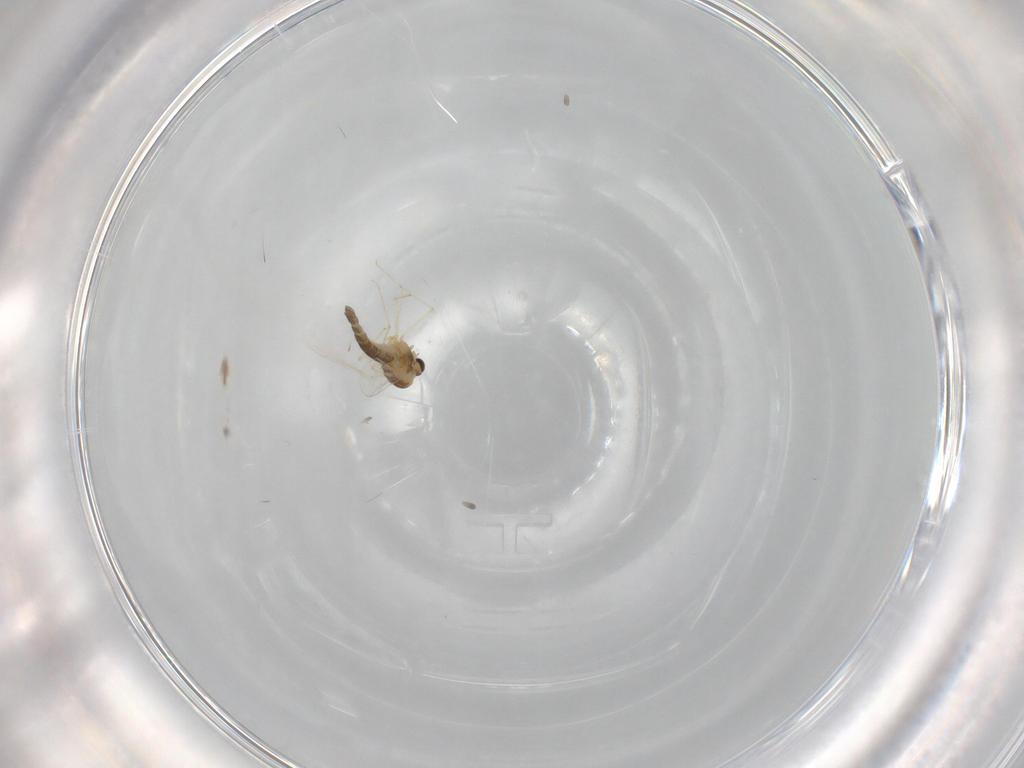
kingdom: Animalia
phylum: Arthropoda
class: Insecta
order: Diptera
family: Chironomidae
